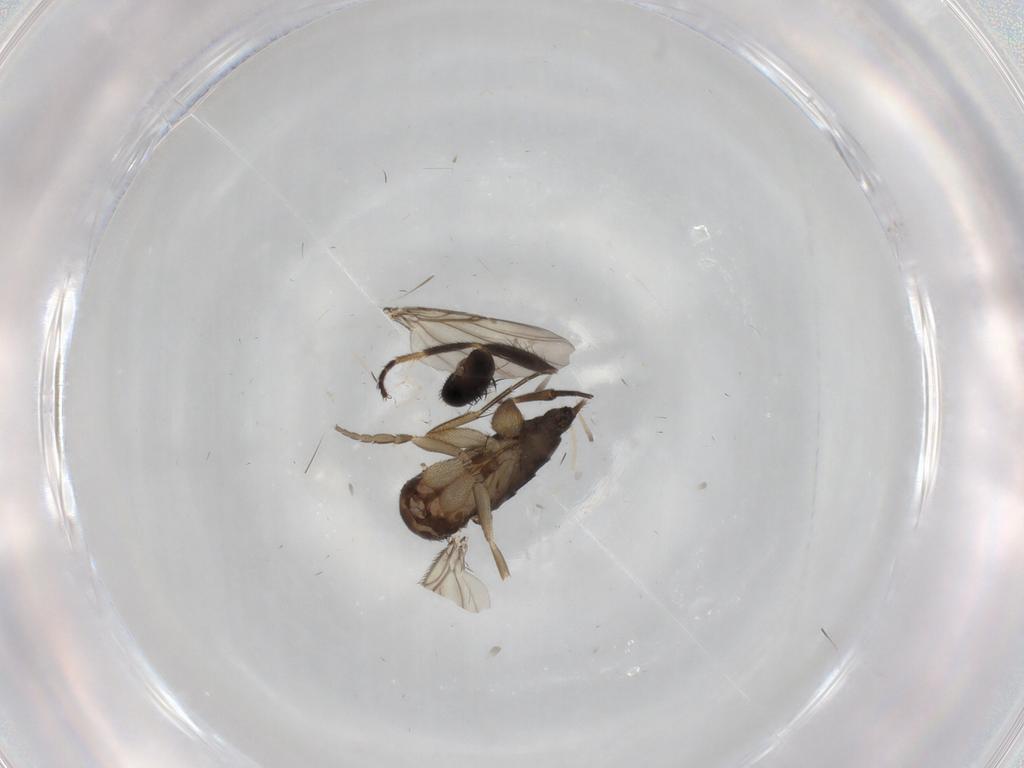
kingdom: Animalia
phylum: Arthropoda
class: Insecta
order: Diptera
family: Phoridae
